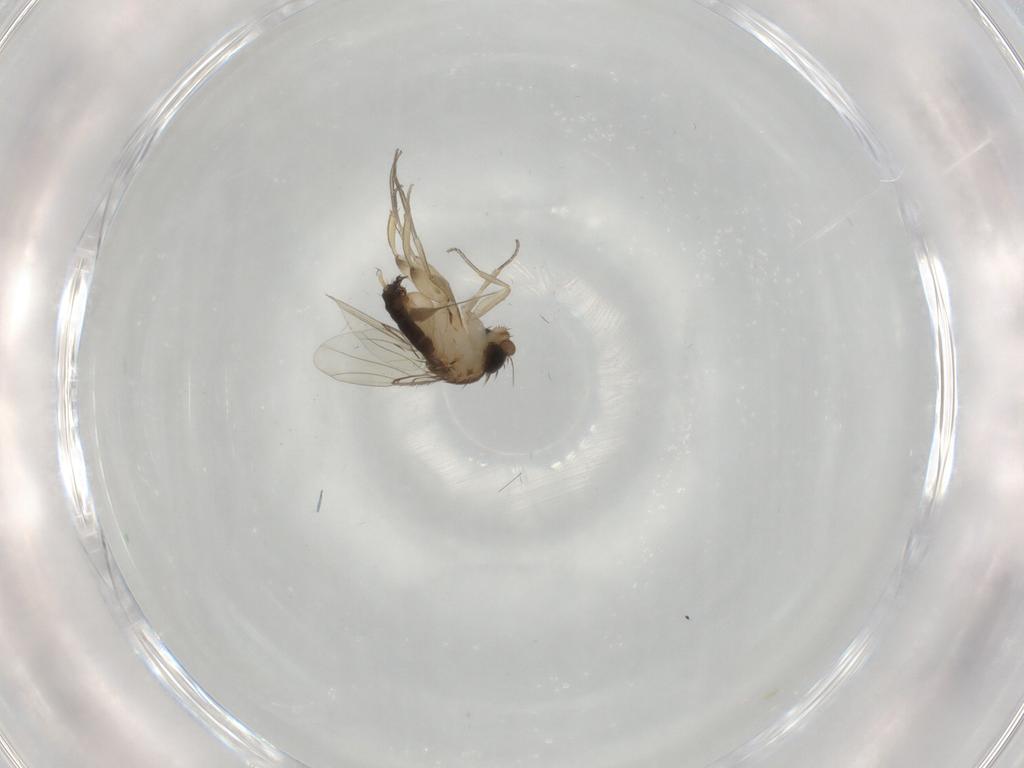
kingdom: Animalia
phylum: Arthropoda
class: Insecta
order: Diptera
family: Phoridae
